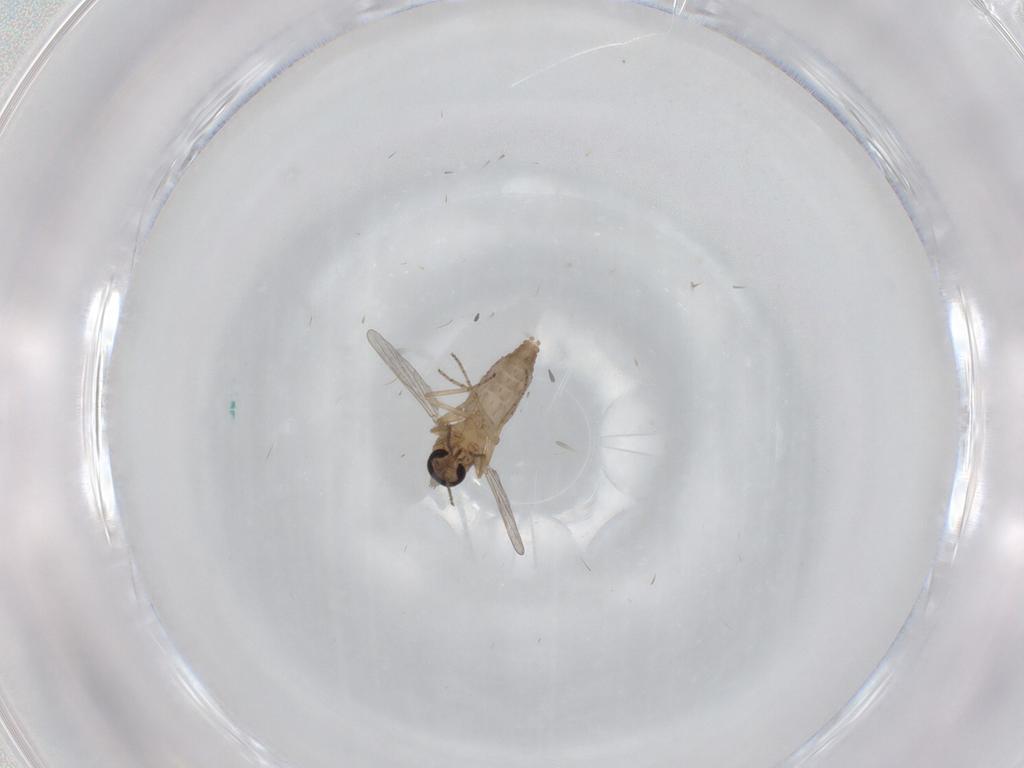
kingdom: Animalia
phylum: Arthropoda
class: Insecta
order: Diptera
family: Ceratopogonidae
